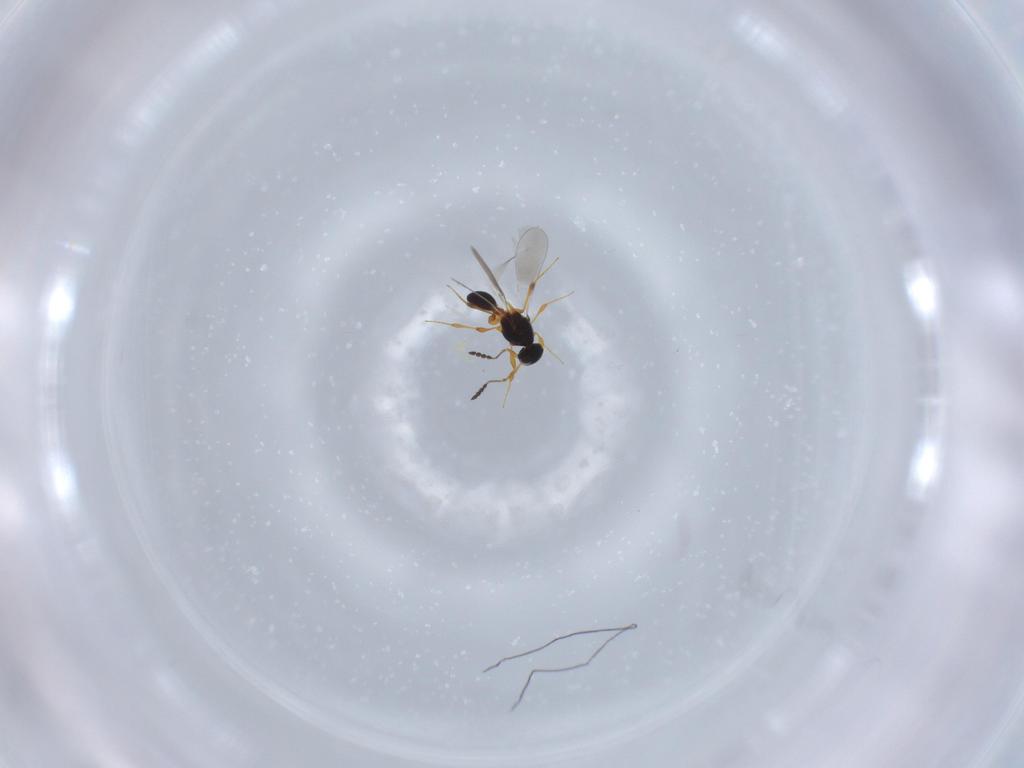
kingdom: Animalia
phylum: Arthropoda
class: Insecta
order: Hymenoptera
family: Platygastridae
